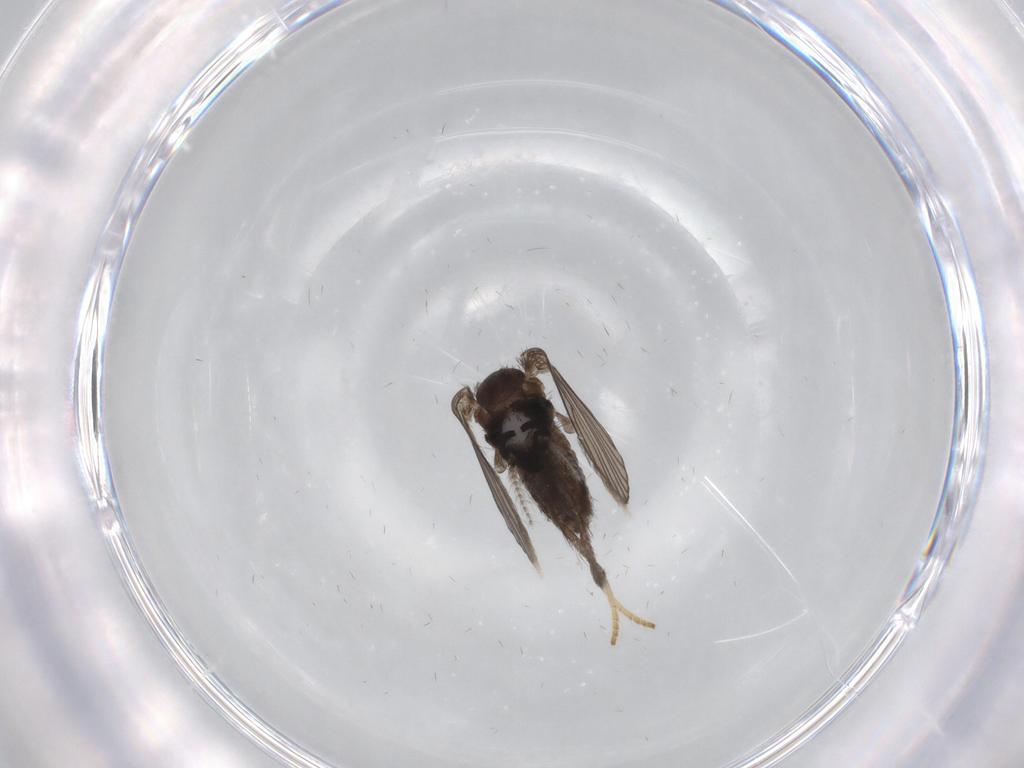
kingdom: Animalia
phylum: Arthropoda
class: Insecta
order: Diptera
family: Psychodidae
